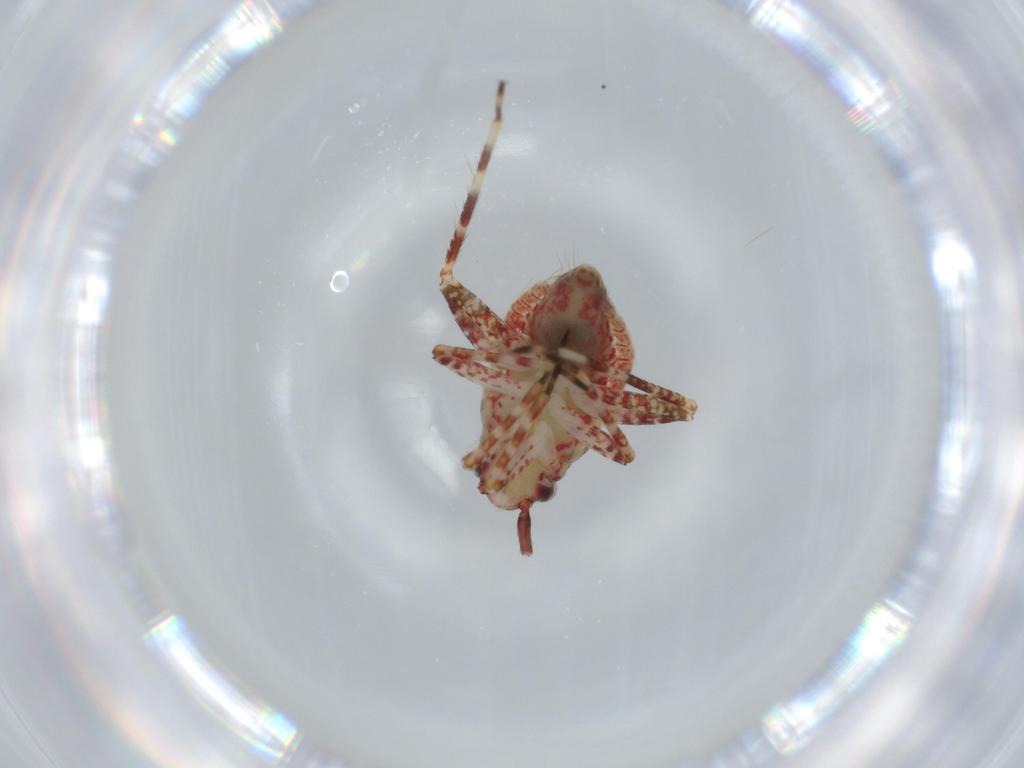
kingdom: Animalia
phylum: Arthropoda
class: Insecta
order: Hemiptera
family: Miridae
